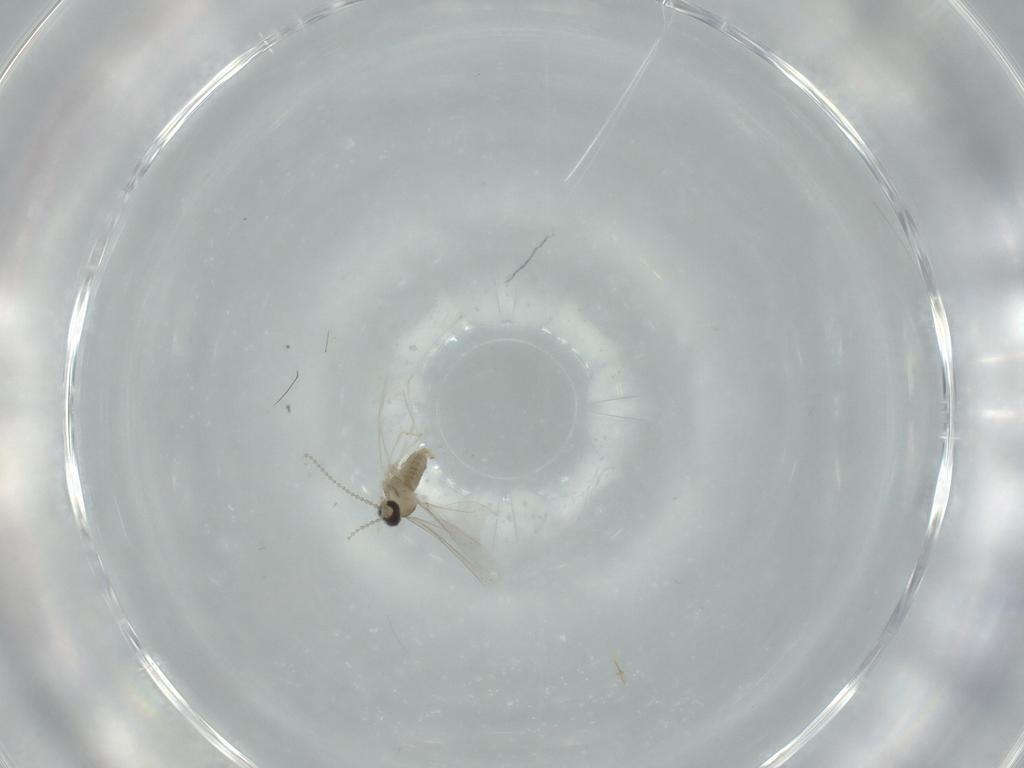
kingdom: Animalia
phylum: Arthropoda
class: Insecta
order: Diptera
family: Cecidomyiidae
